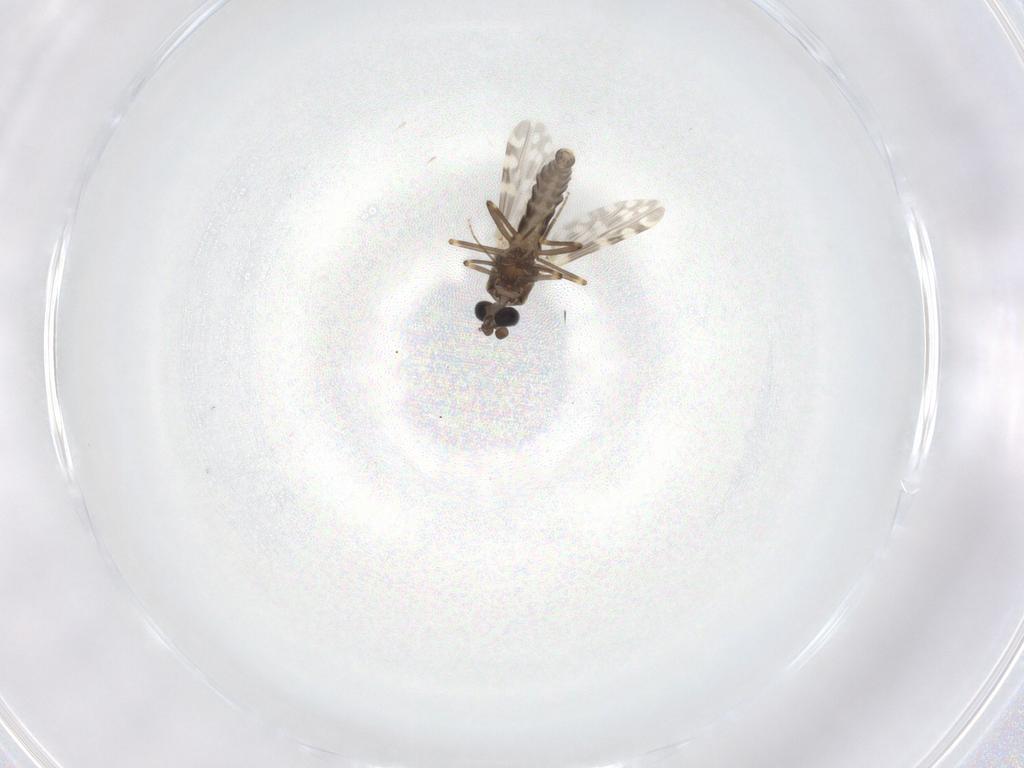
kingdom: Animalia
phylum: Arthropoda
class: Insecta
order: Diptera
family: Ceratopogonidae
